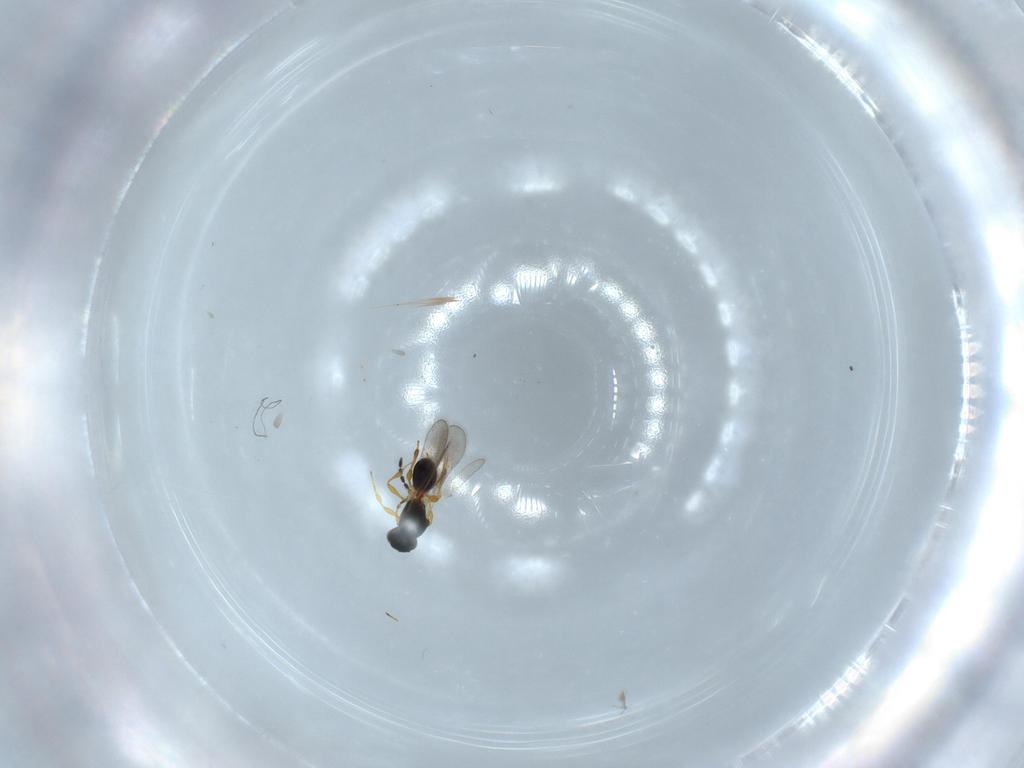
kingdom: Animalia
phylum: Arthropoda
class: Insecta
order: Hymenoptera
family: Platygastridae
